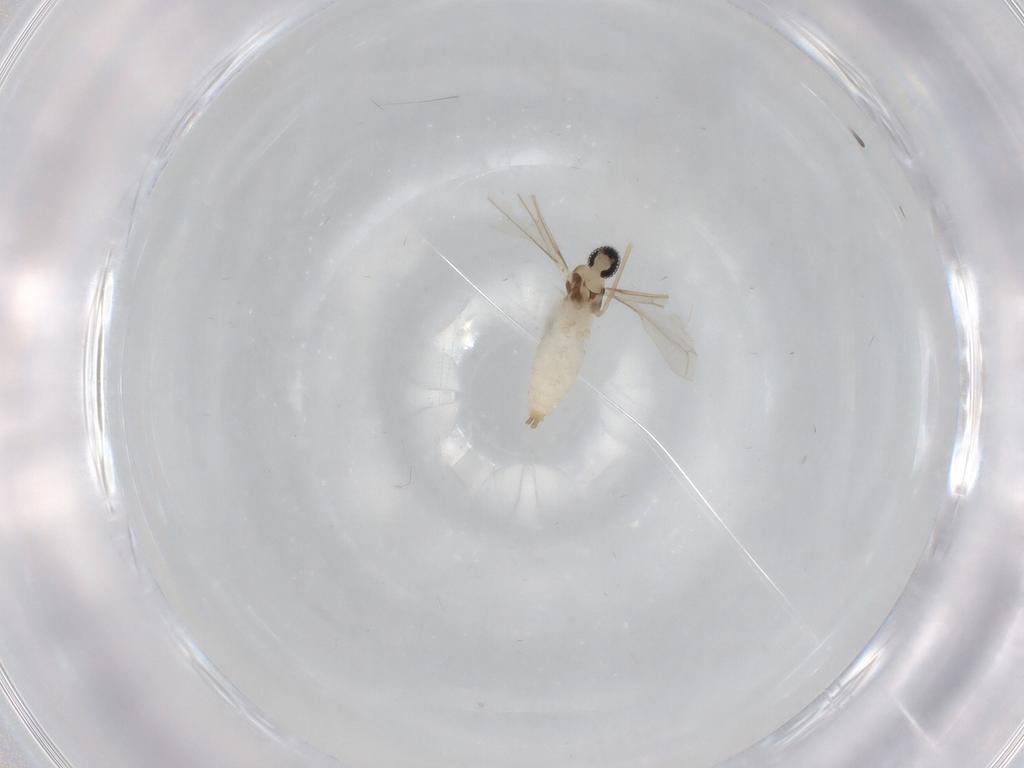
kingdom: Animalia
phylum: Arthropoda
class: Insecta
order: Diptera
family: Cecidomyiidae
